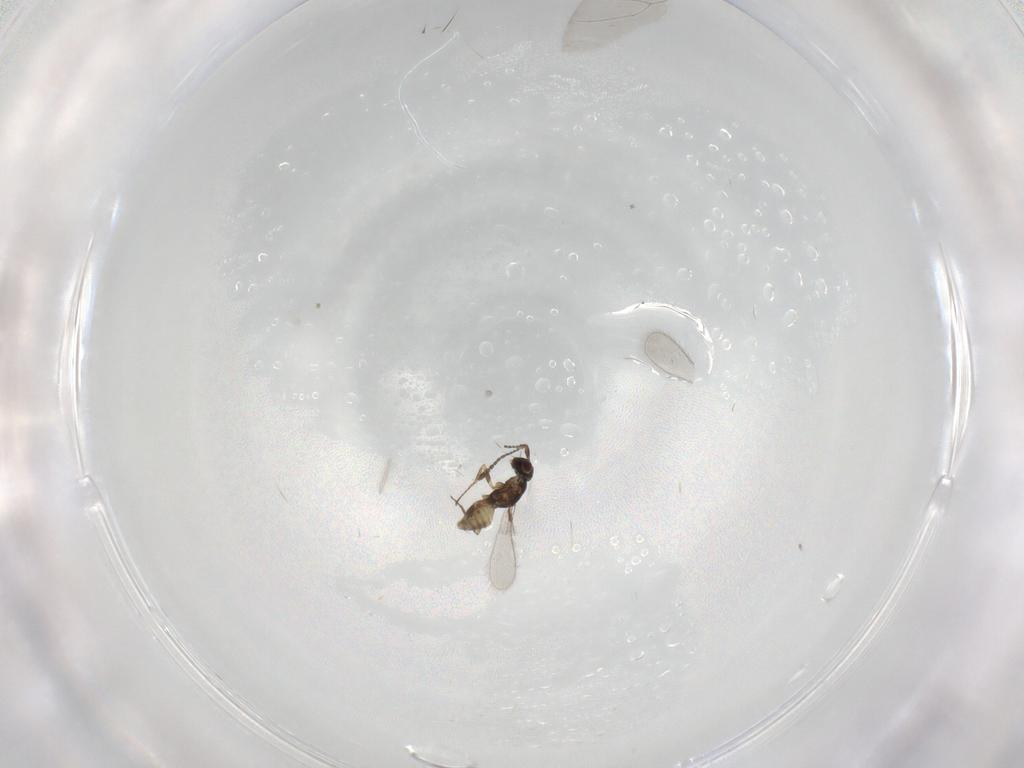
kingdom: Animalia
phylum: Arthropoda
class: Insecta
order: Hymenoptera
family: Mymaridae
